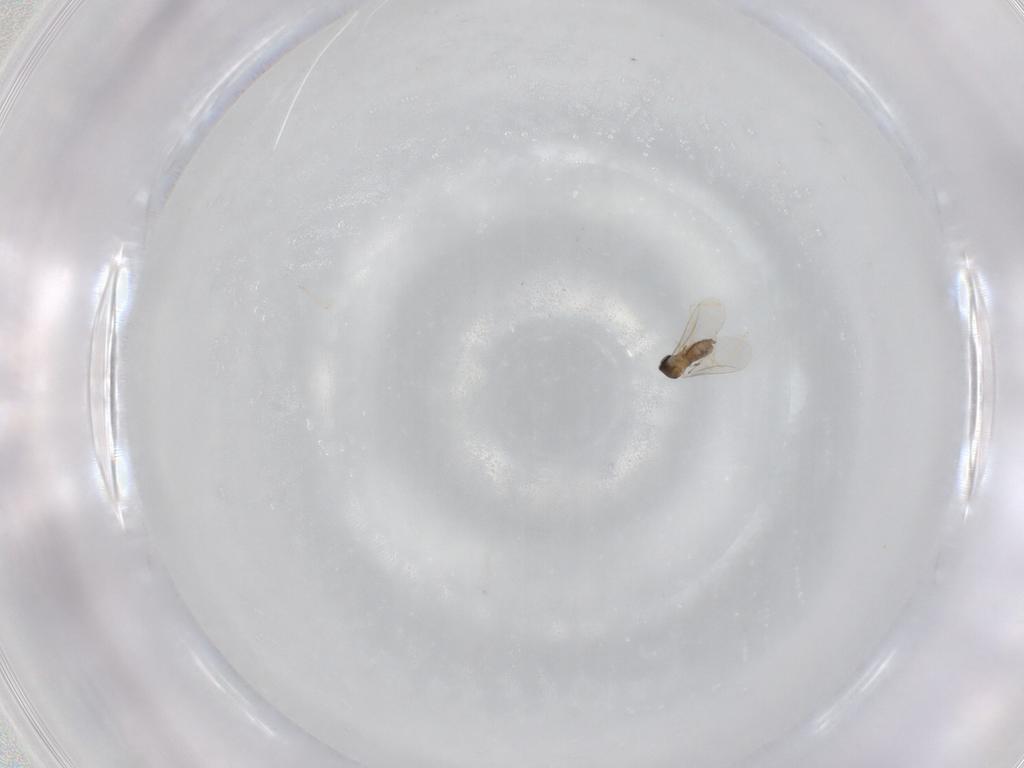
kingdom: Animalia
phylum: Arthropoda
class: Insecta
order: Diptera
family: Cecidomyiidae
